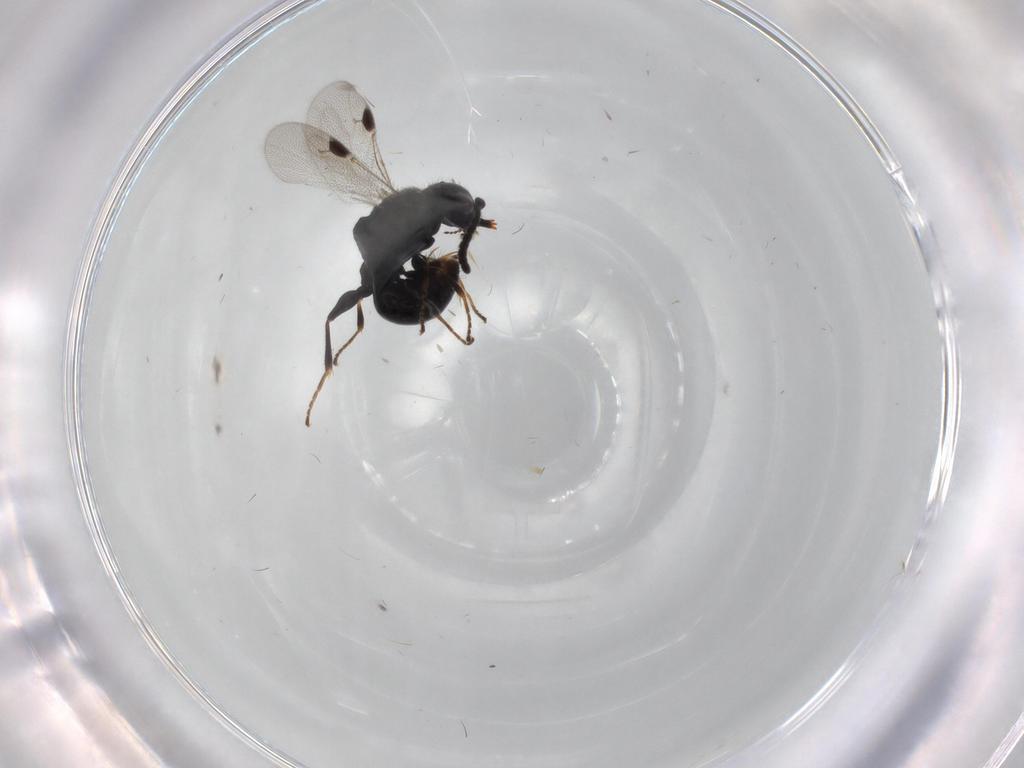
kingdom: Animalia
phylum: Arthropoda
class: Insecta
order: Hymenoptera
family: Dryinidae
